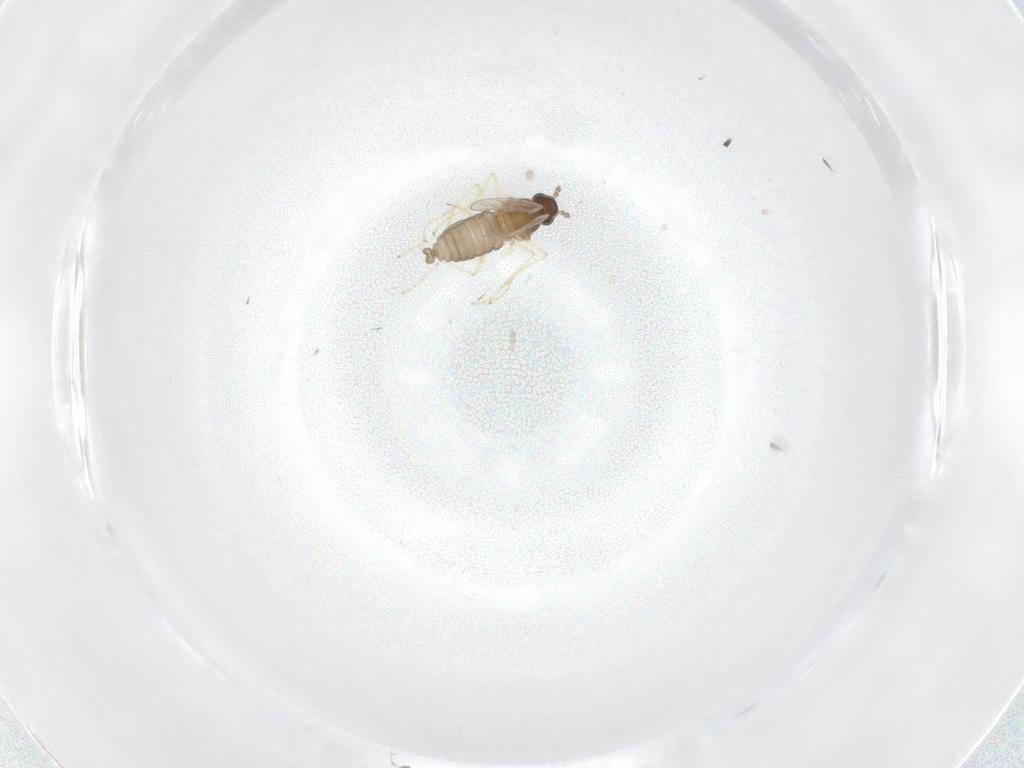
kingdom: Animalia
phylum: Arthropoda
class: Insecta
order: Diptera
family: Cecidomyiidae
